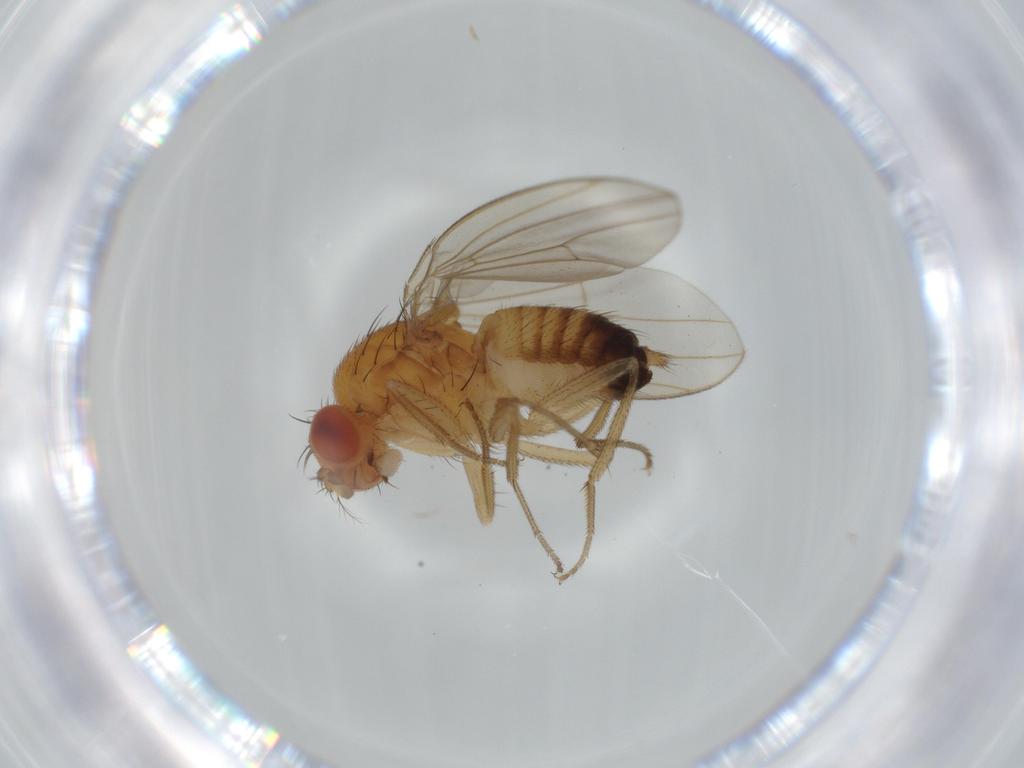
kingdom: Animalia
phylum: Arthropoda
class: Insecta
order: Diptera
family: Drosophilidae
